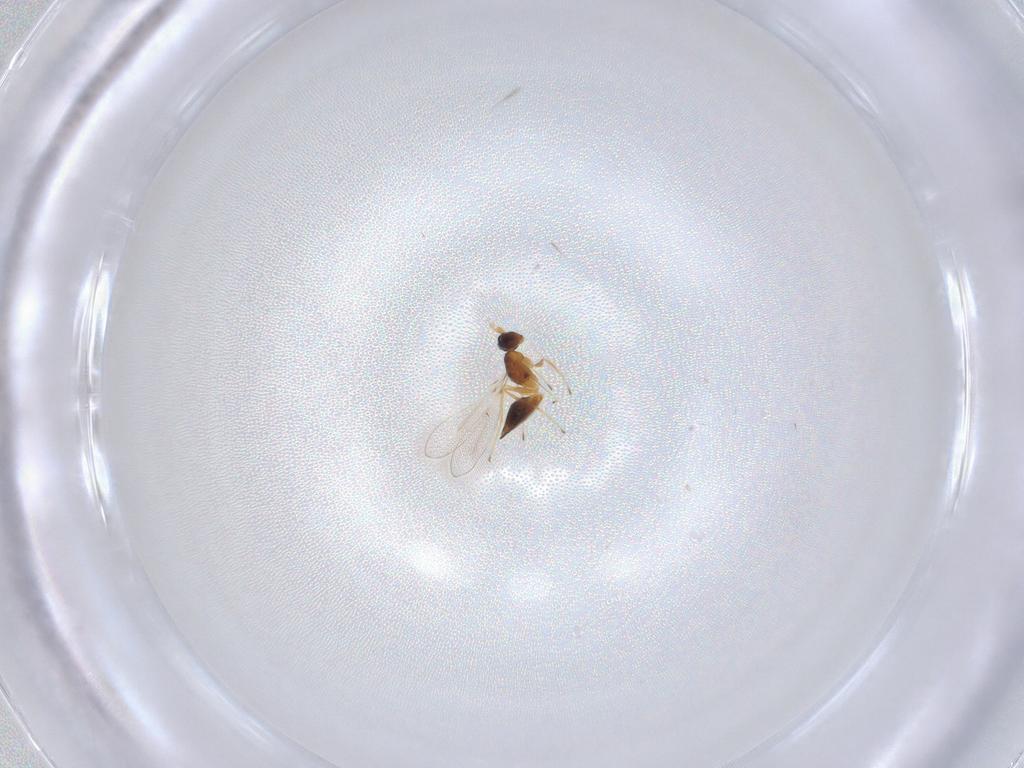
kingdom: Animalia
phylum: Arthropoda
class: Insecta
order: Hymenoptera
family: Mymaridae
